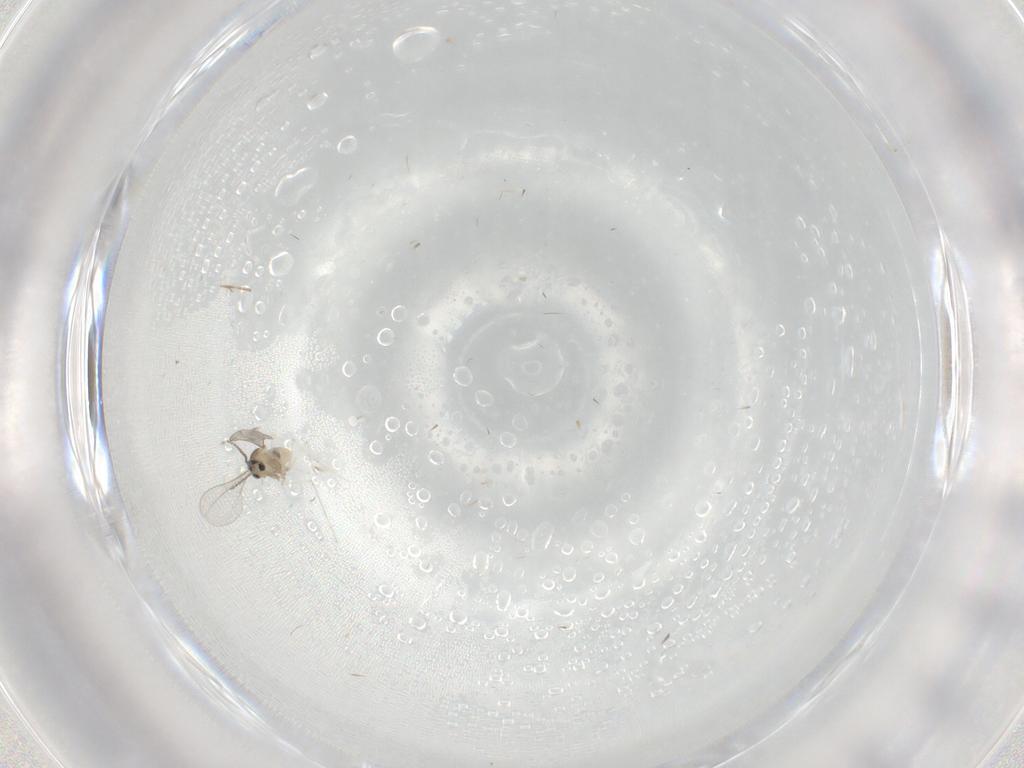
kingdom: Animalia
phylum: Arthropoda
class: Insecta
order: Diptera
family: Cecidomyiidae
